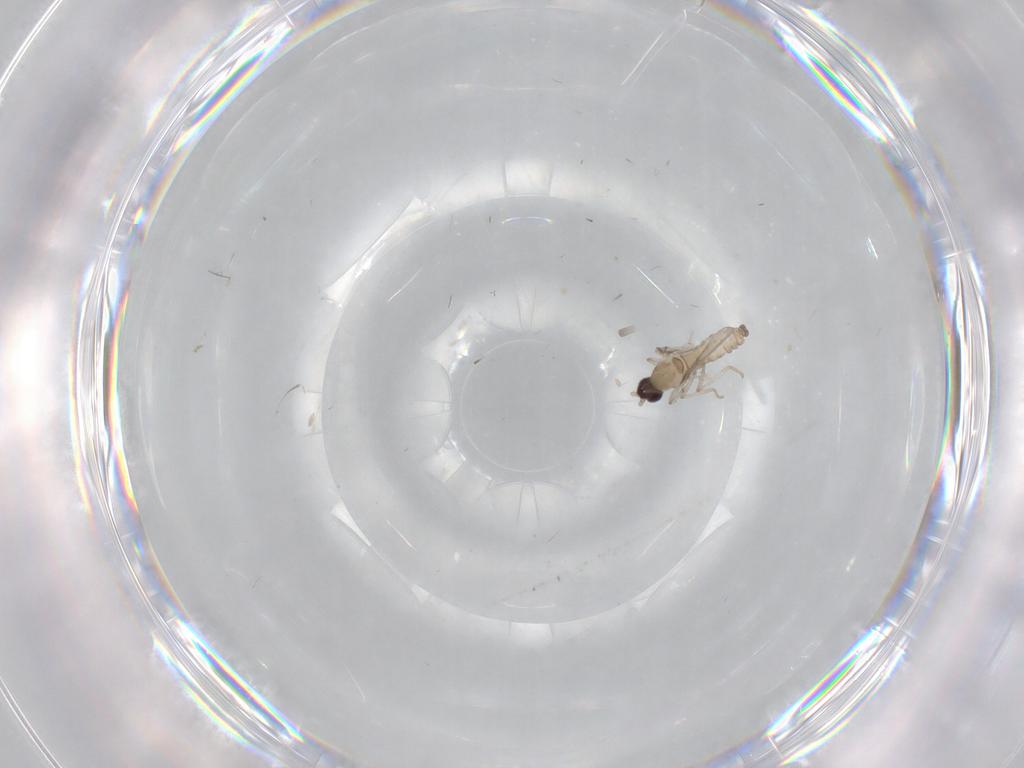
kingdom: Animalia
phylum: Arthropoda
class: Insecta
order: Diptera
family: Cecidomyiidae
